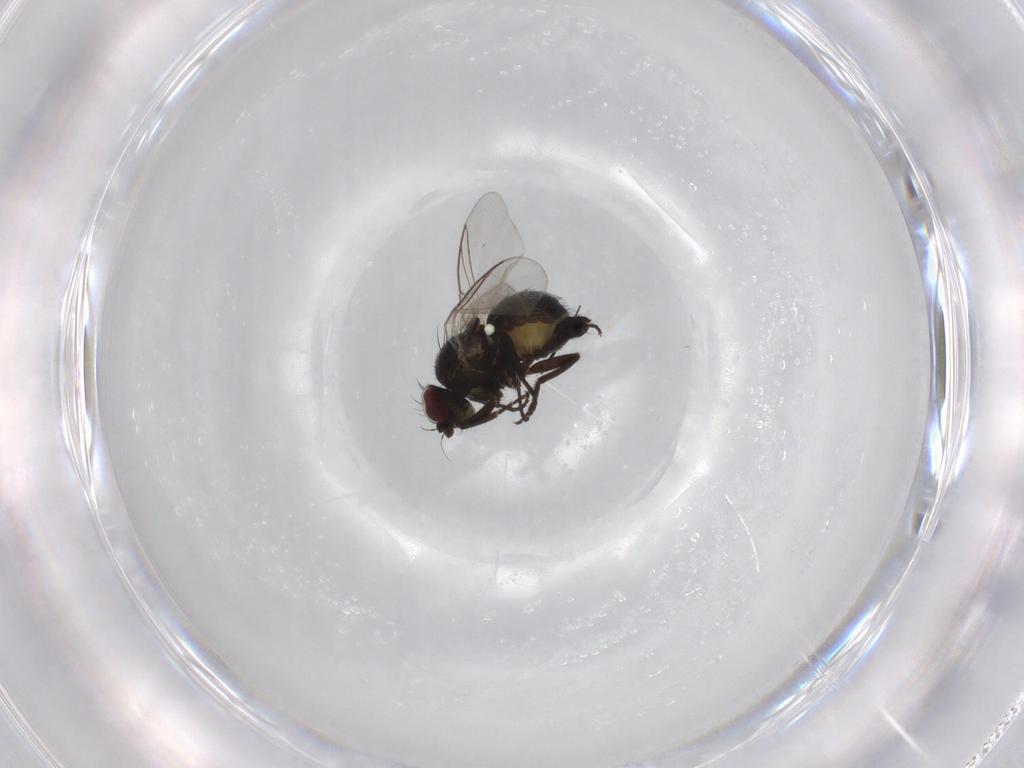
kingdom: Animalia
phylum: Arthropoda
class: Insecta
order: Diptera
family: Agromyzidae
